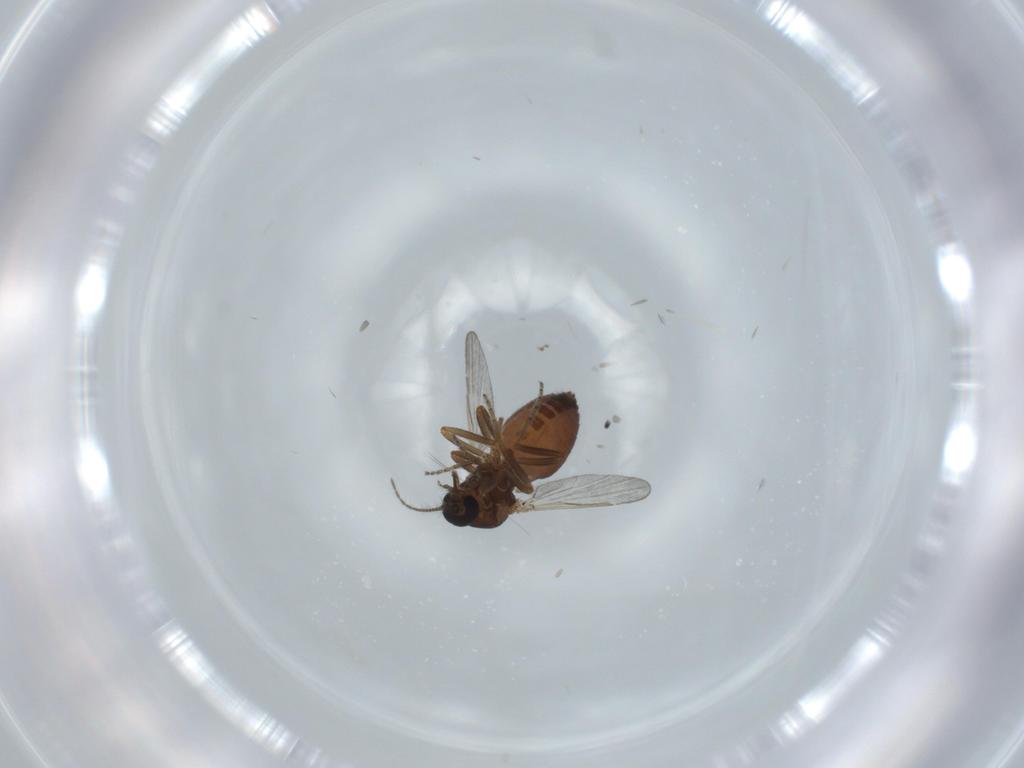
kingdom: Animalia
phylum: Arthropoda
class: Insecta
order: Diptera
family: Ceratopogonidae
